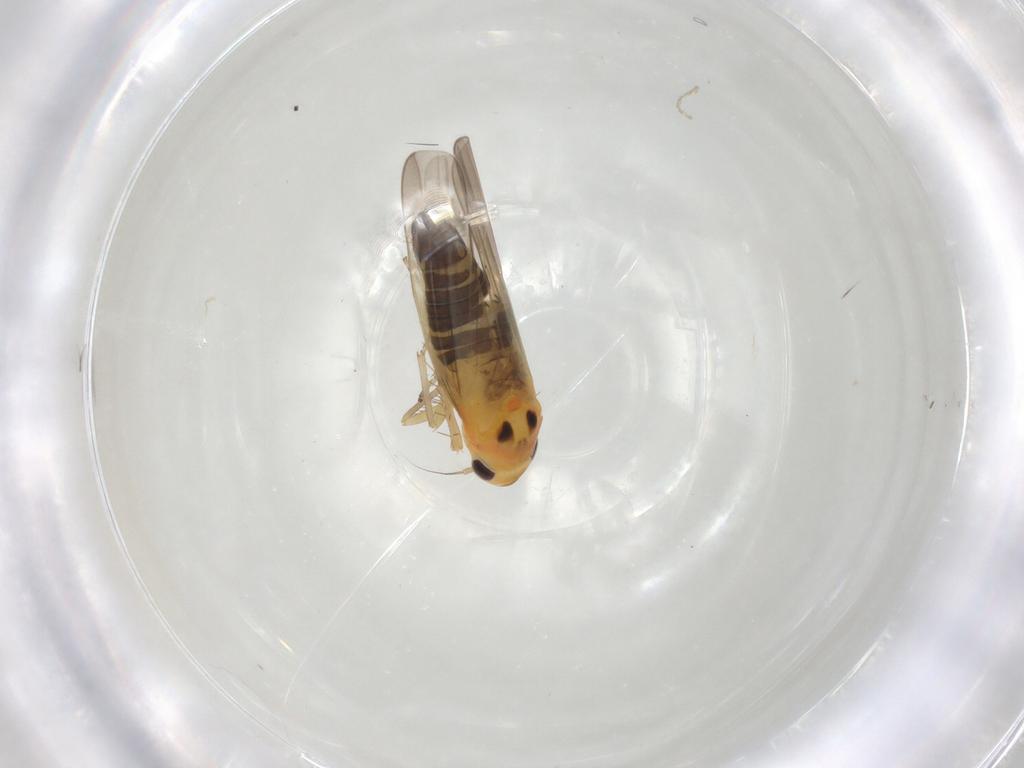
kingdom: Animalia
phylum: Arthropoda
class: Insecta
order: Hemiptera
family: Cicadellidae
